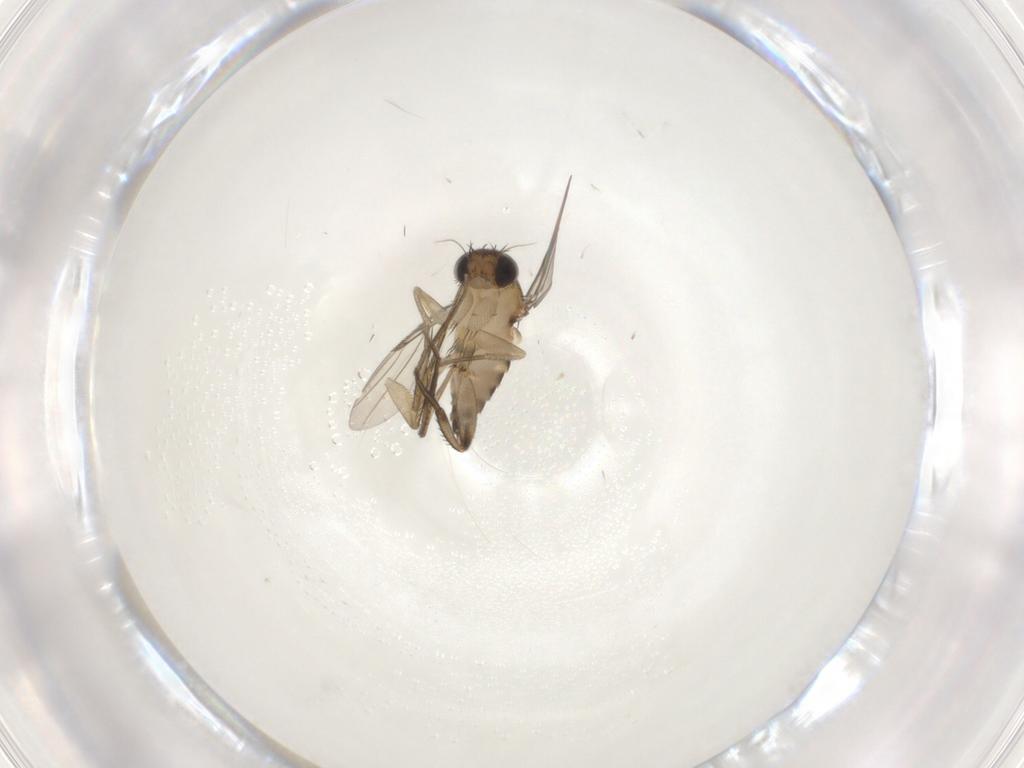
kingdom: Animalia
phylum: Arthropoda
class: Insecta
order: Diptera
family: Phoridae
